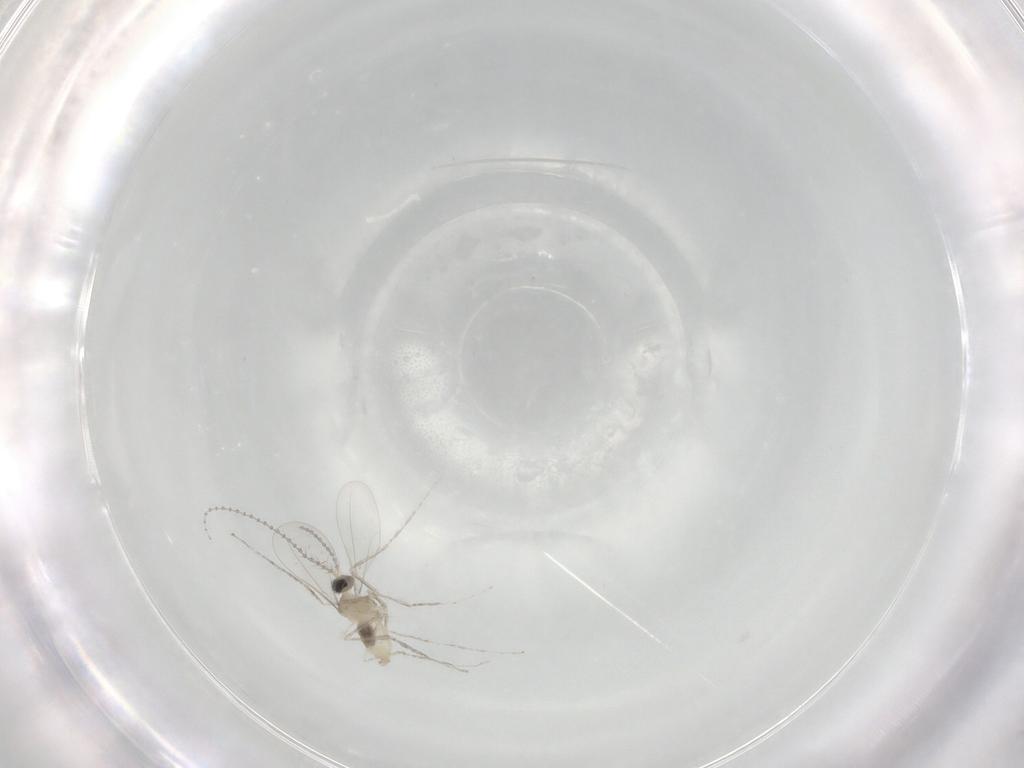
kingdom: Animalia
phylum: Arthropoda
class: Insecta
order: Diptera
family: Cecidomyiidae
